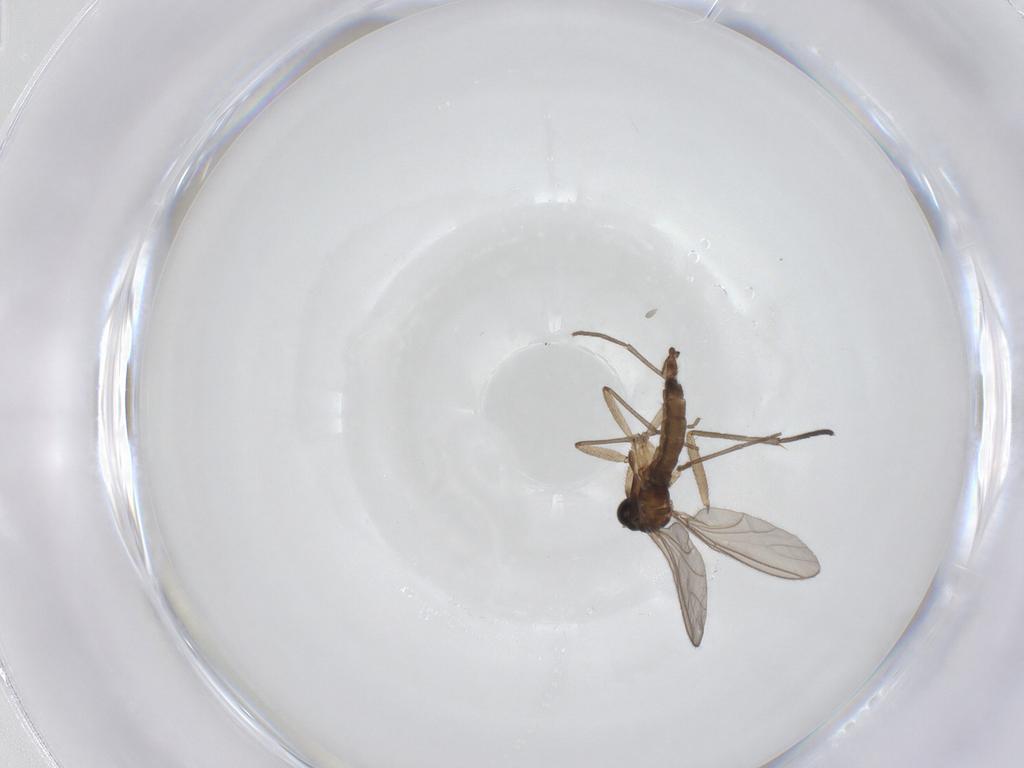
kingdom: Animalia
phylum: Arthropoda
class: Insecta
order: Diptera
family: Sciaridae
